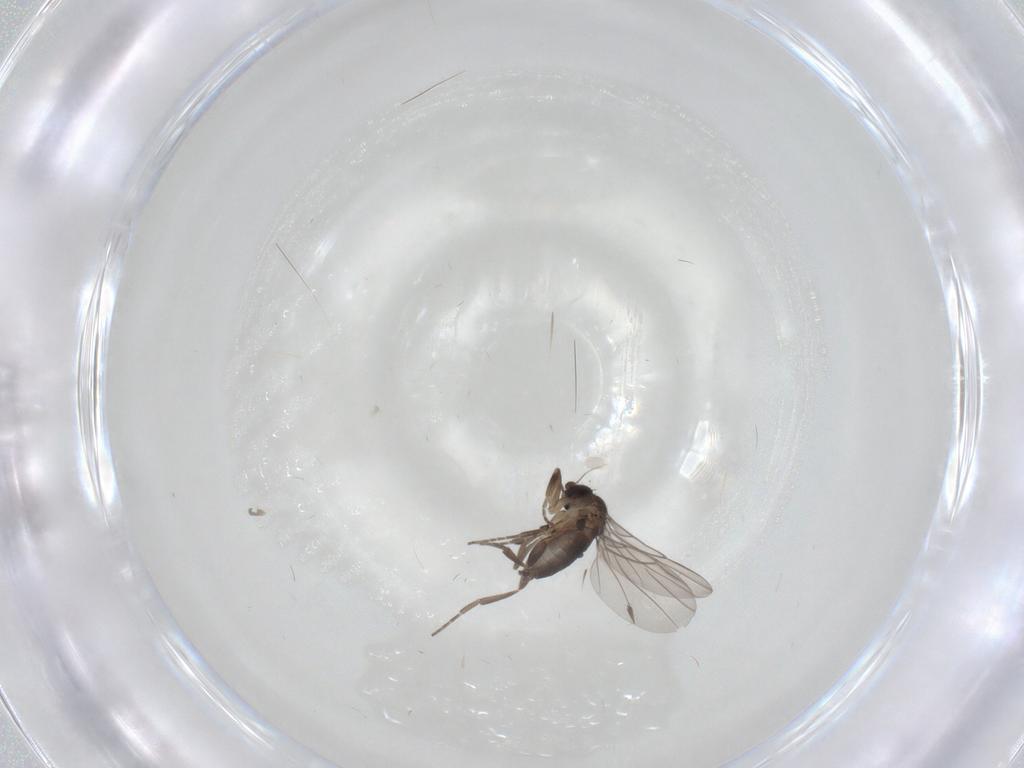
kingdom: Animalia
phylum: Arthropoda
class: Insecta
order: Diptera
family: Phoridae
